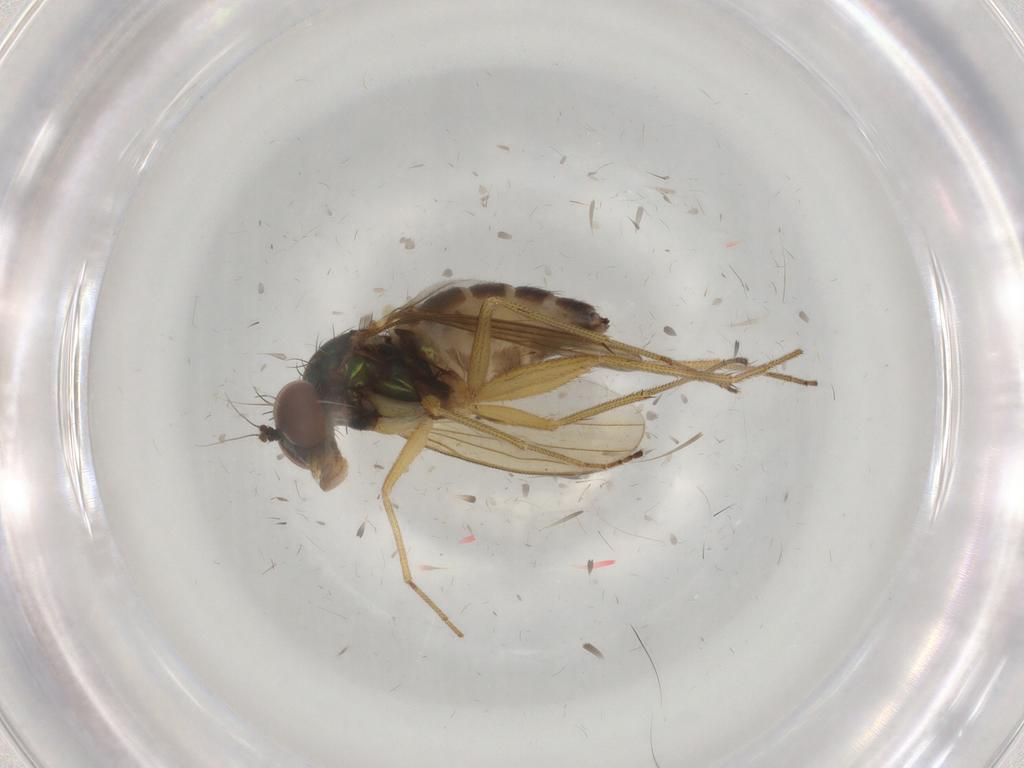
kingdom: Animalia
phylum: Arthropoda
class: Insecta
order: Diptera
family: Dolichopodidae
